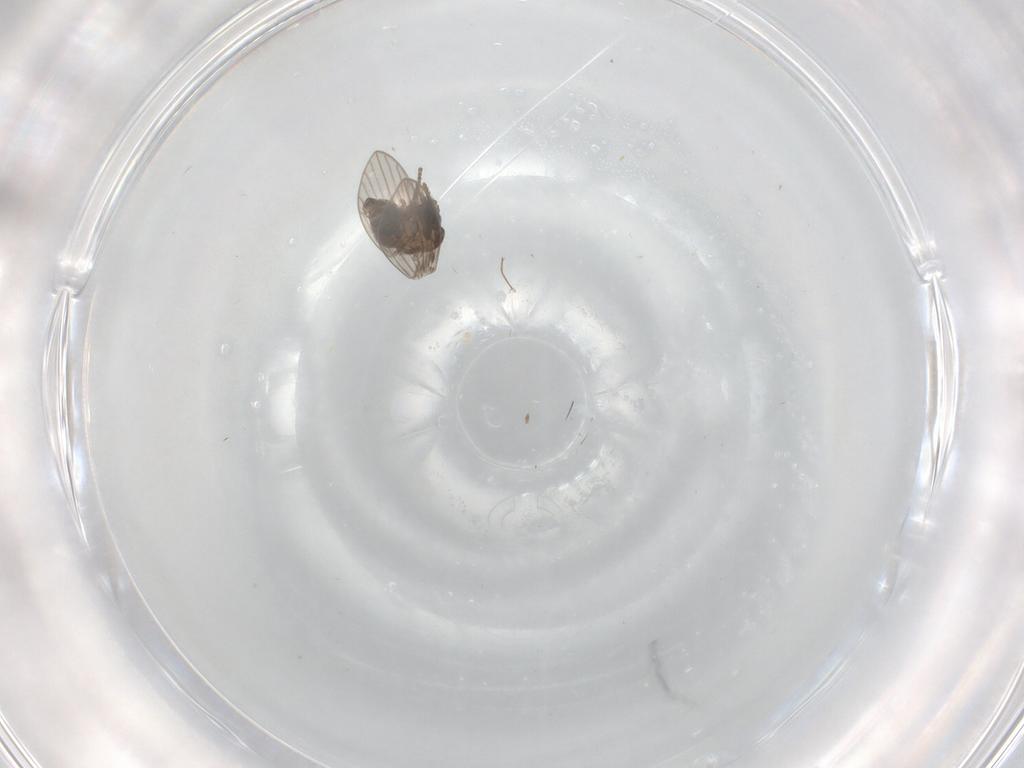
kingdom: Animalia
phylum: Arthropoda
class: Insecta
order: Diptera
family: Psychodidae
